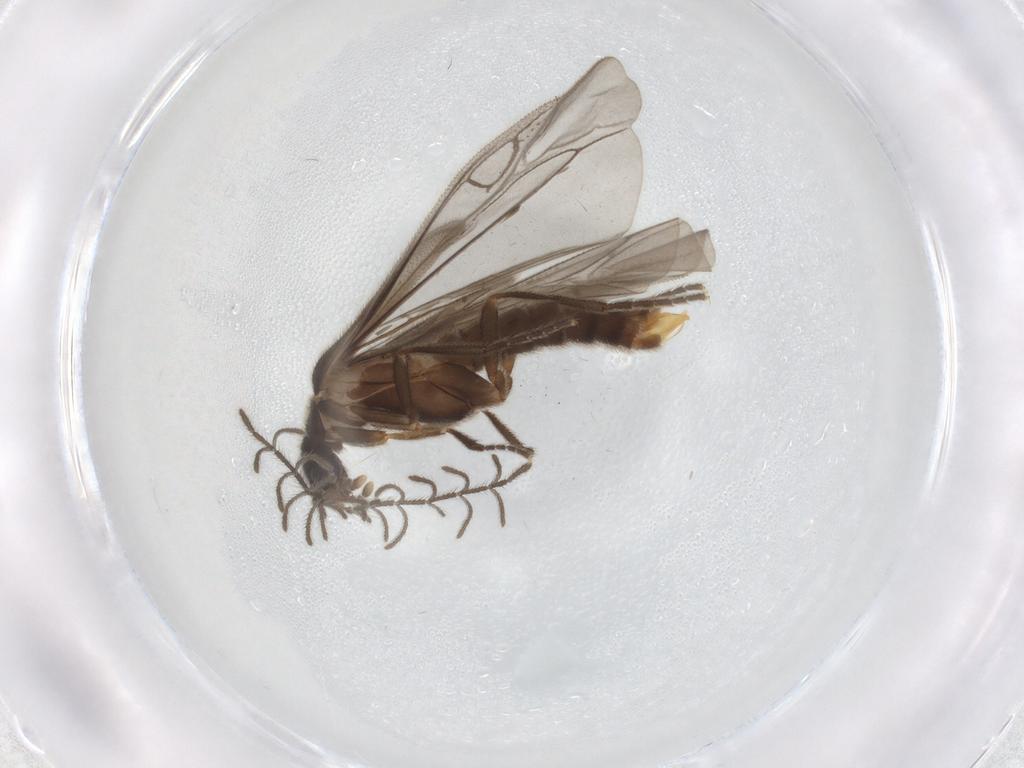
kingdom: Animalia
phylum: Arthropoda
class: Insecta
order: Coleoptera
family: Phengodidae
